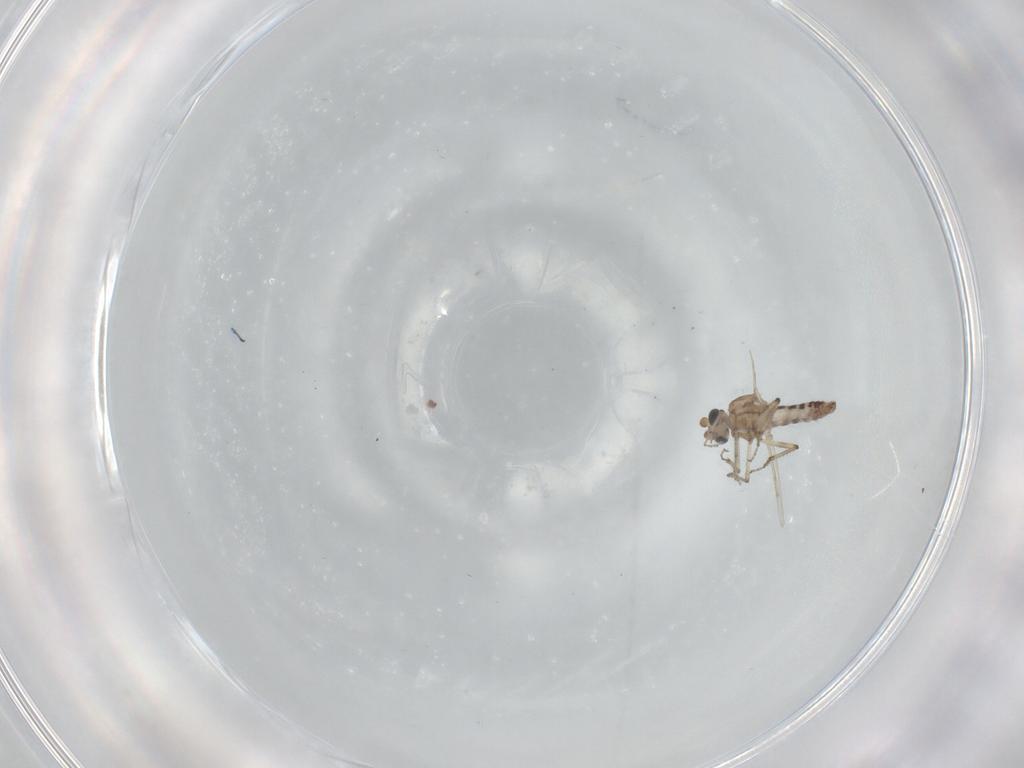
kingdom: Animalia
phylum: Arthropoda
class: Insecta
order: Diptera
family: Ceratopogonidae
